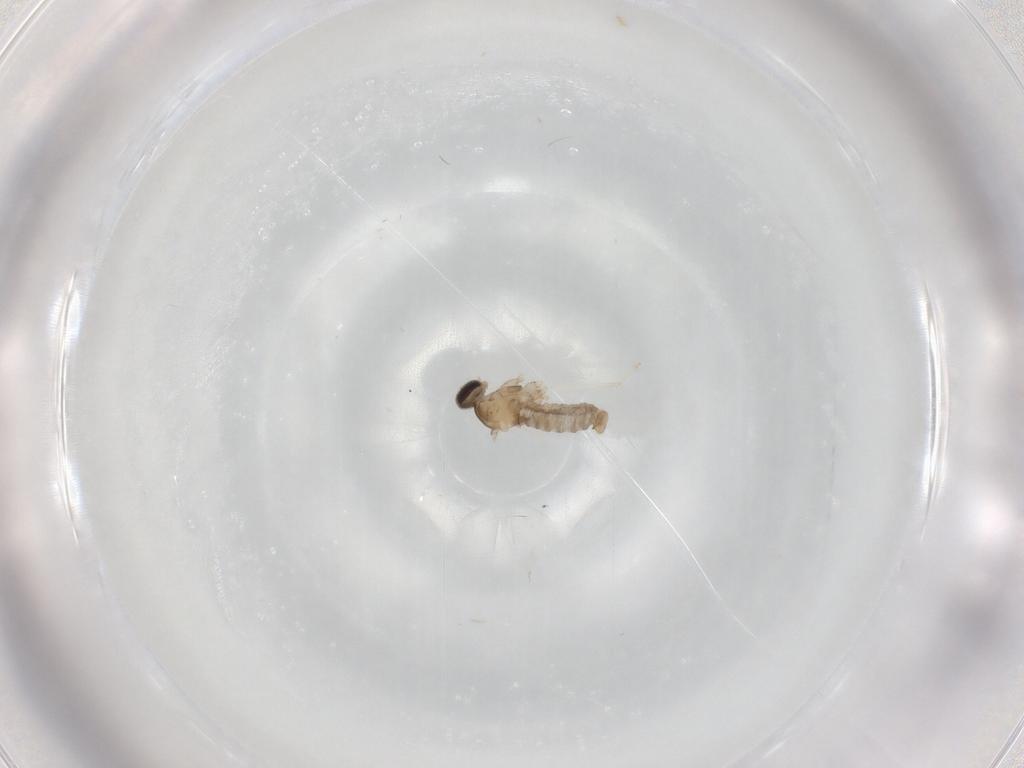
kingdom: Animalia
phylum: Arthropoda
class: Insecta
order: Diptera
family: Cecidomyiidae
